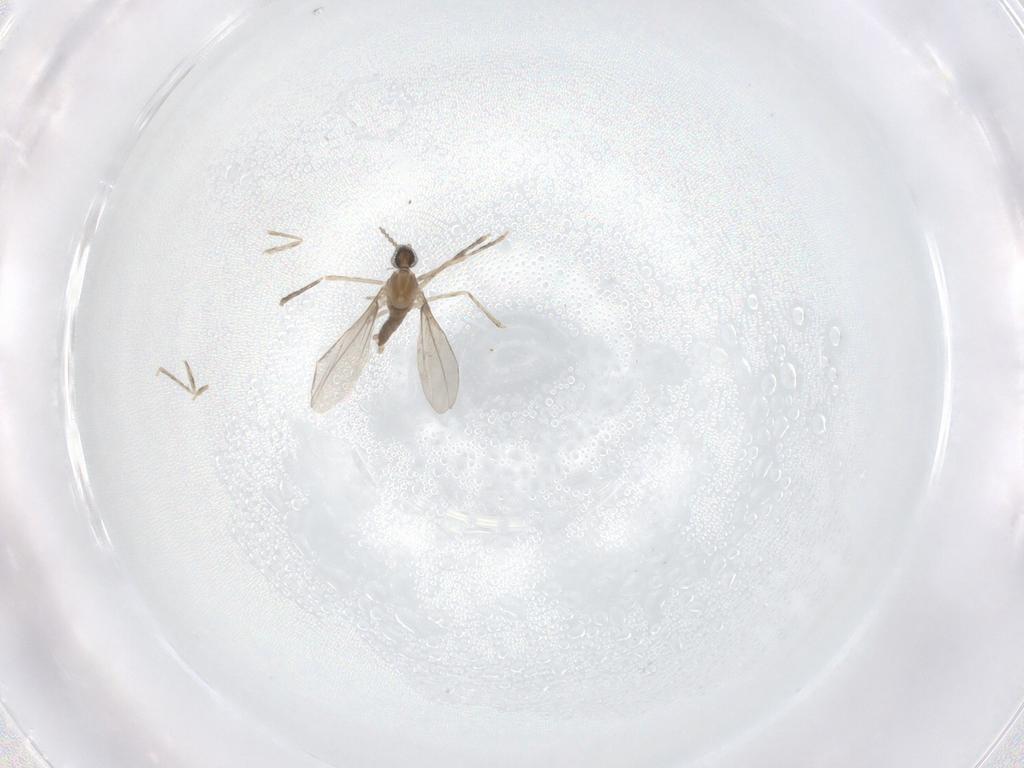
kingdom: Animalia
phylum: Arthropoda
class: Insecta
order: Diptera
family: Cecidomyiidae
